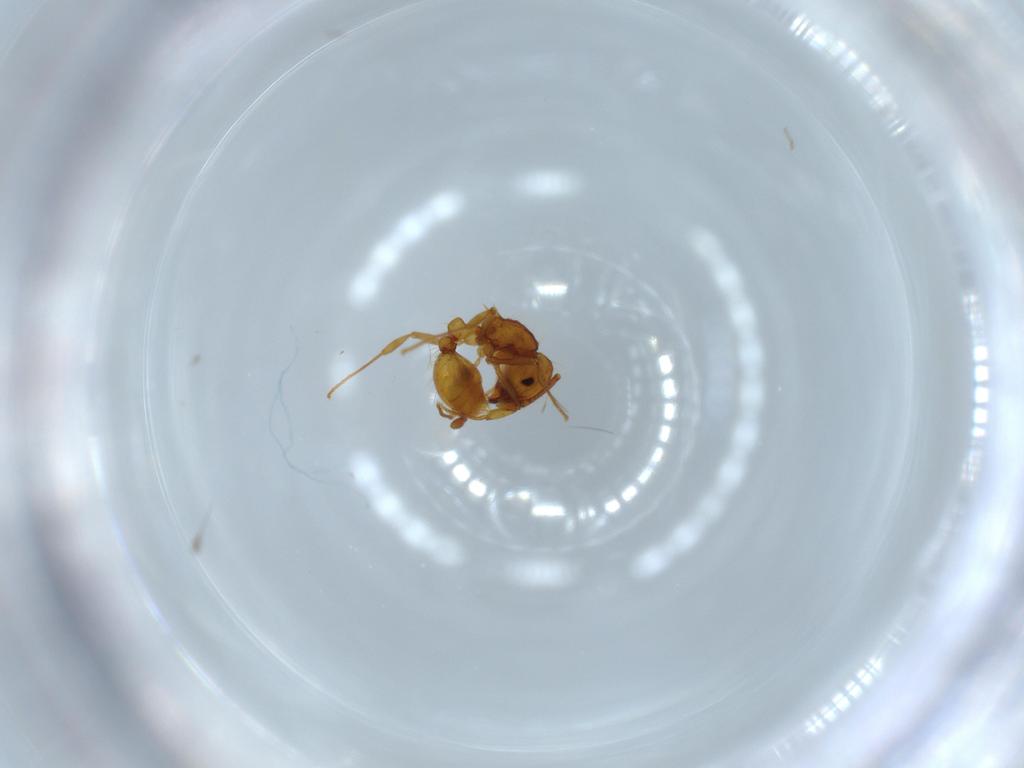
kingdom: Animalia
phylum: Arthropoda
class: Insecta
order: Hymenoptera
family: Formicidae
